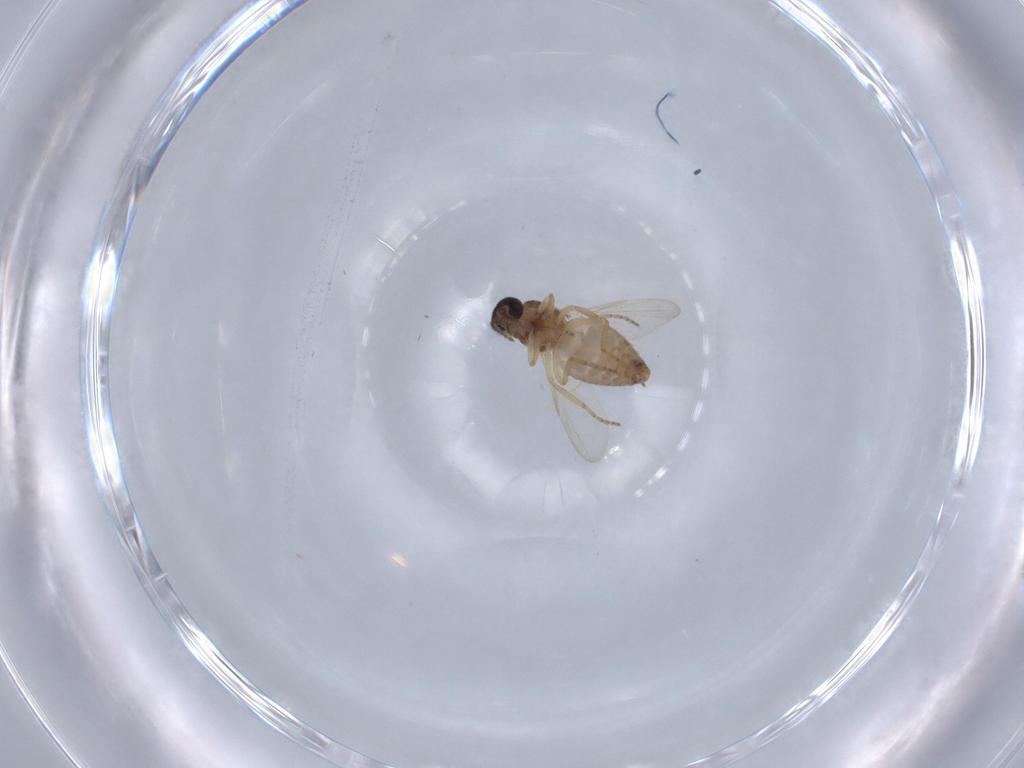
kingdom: Animalia
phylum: Arthropoda
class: Insecta
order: Diptera
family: Ceratopogonidae
